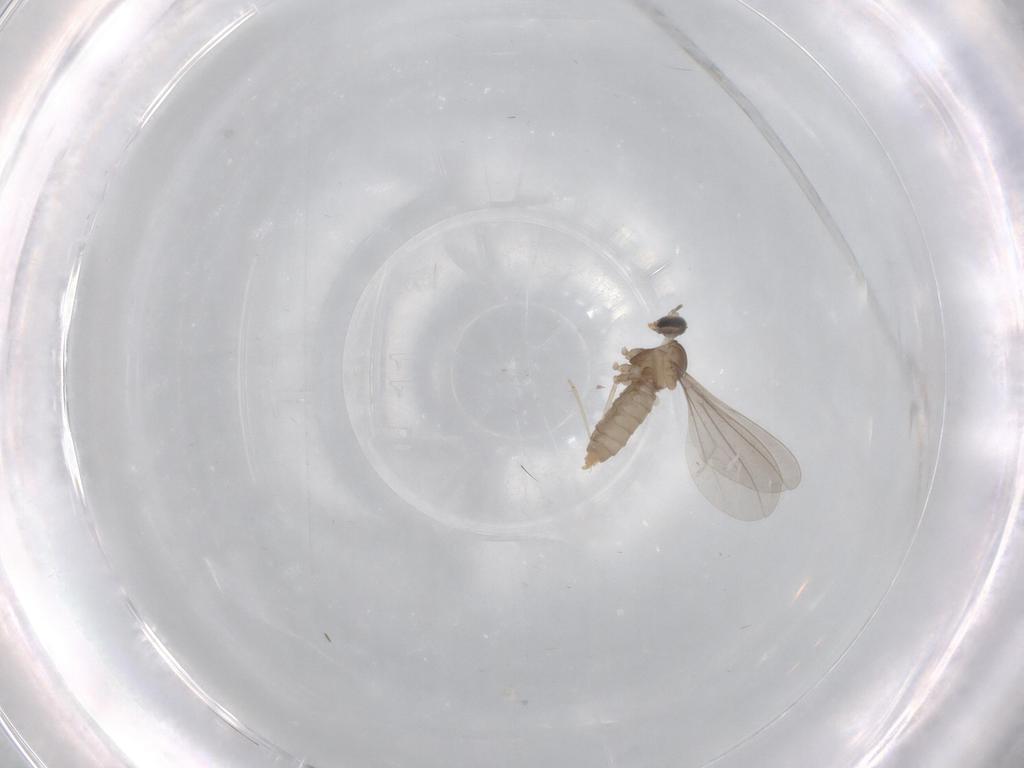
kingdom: Animalia
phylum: Arthropoda
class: Insecta
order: Diptera
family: Cecidomyiidae
